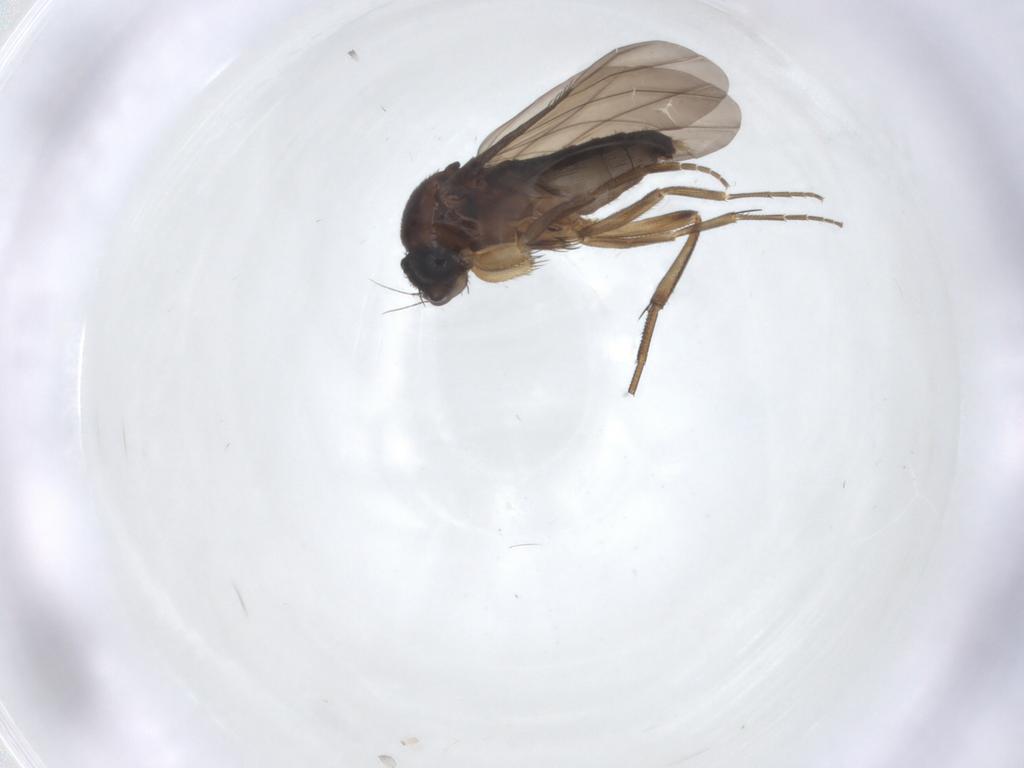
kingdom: Animalia
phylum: Arthropoda
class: Insecta
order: Diptera
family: Phoridae
